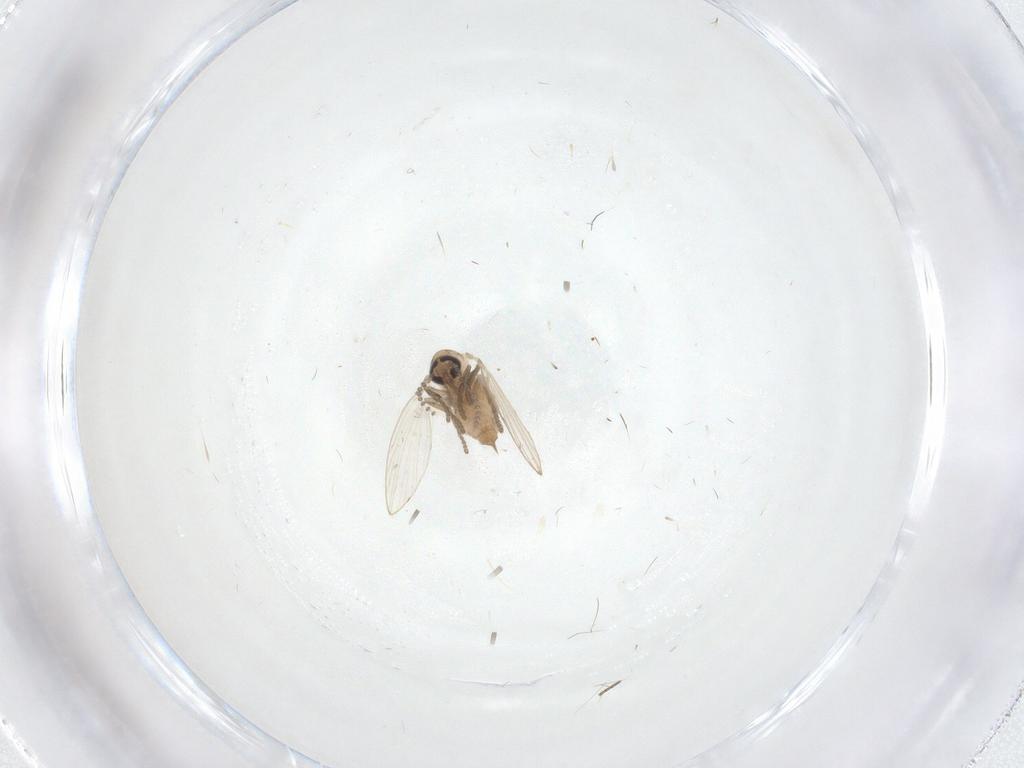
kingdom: Animalia
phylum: Arthropoda
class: Insecta
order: Diptera
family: Psychodidae
